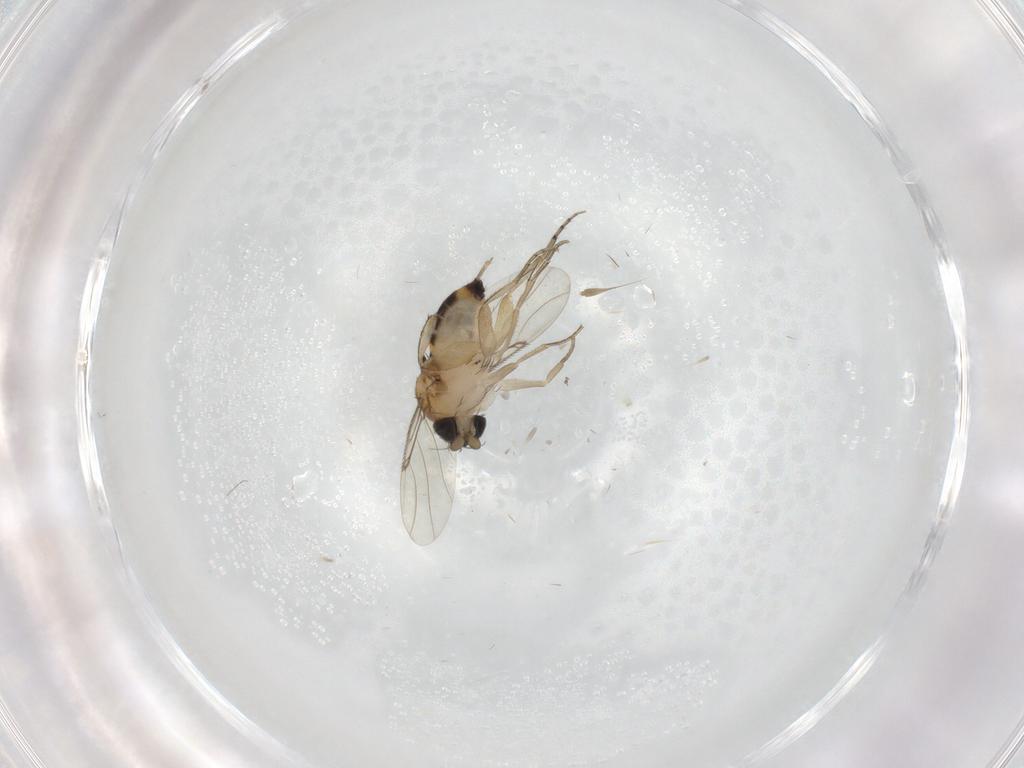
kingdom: Animalia
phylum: Arthropoda
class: Insecta
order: Diptera
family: Phoridae
